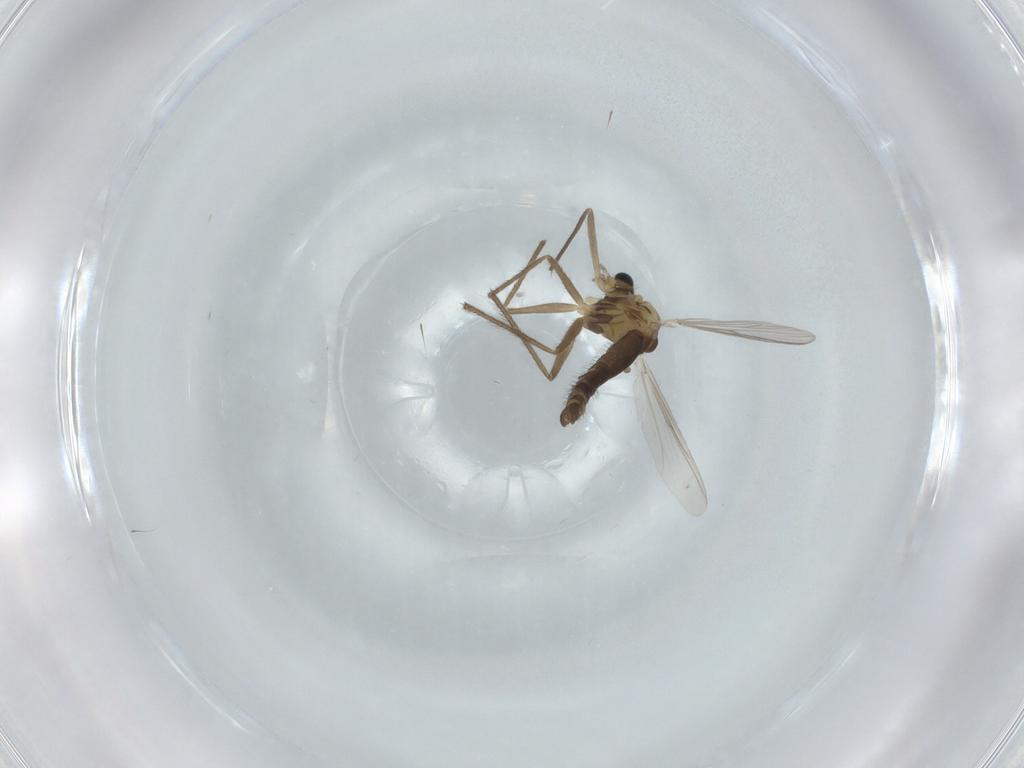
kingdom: Animalia
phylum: Arthropoda
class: Insecta
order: Diptera
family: Chironomidae
